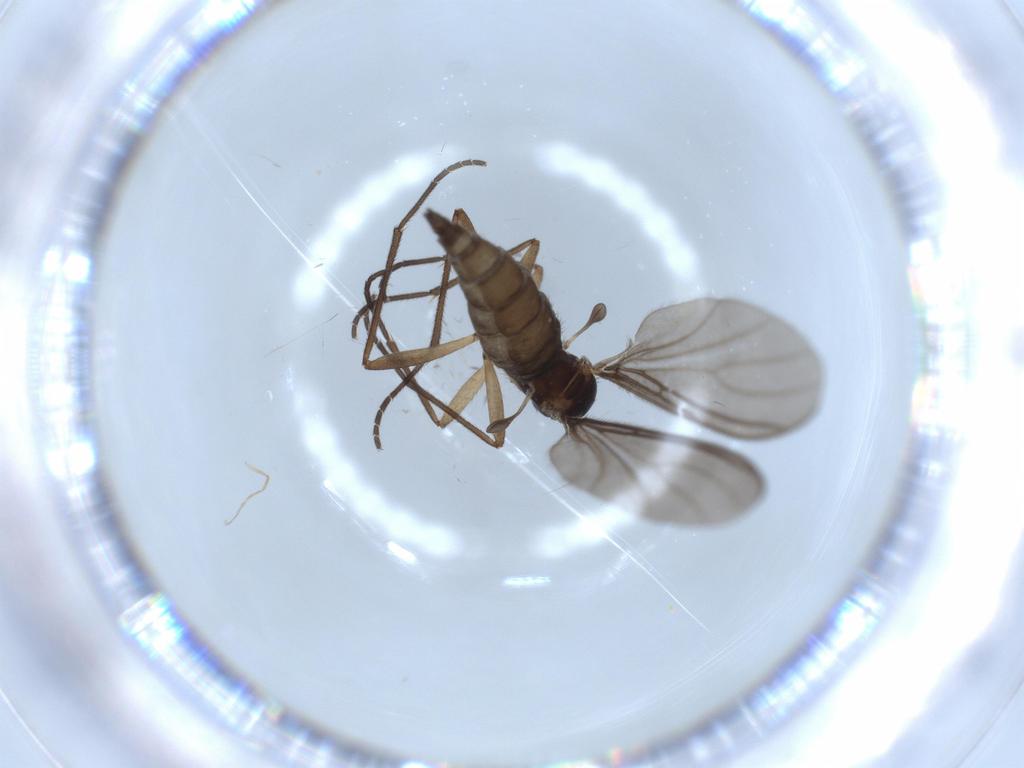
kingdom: Animalia
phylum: Arthropoda
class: Insecta
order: Diptera
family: Sciaridae
